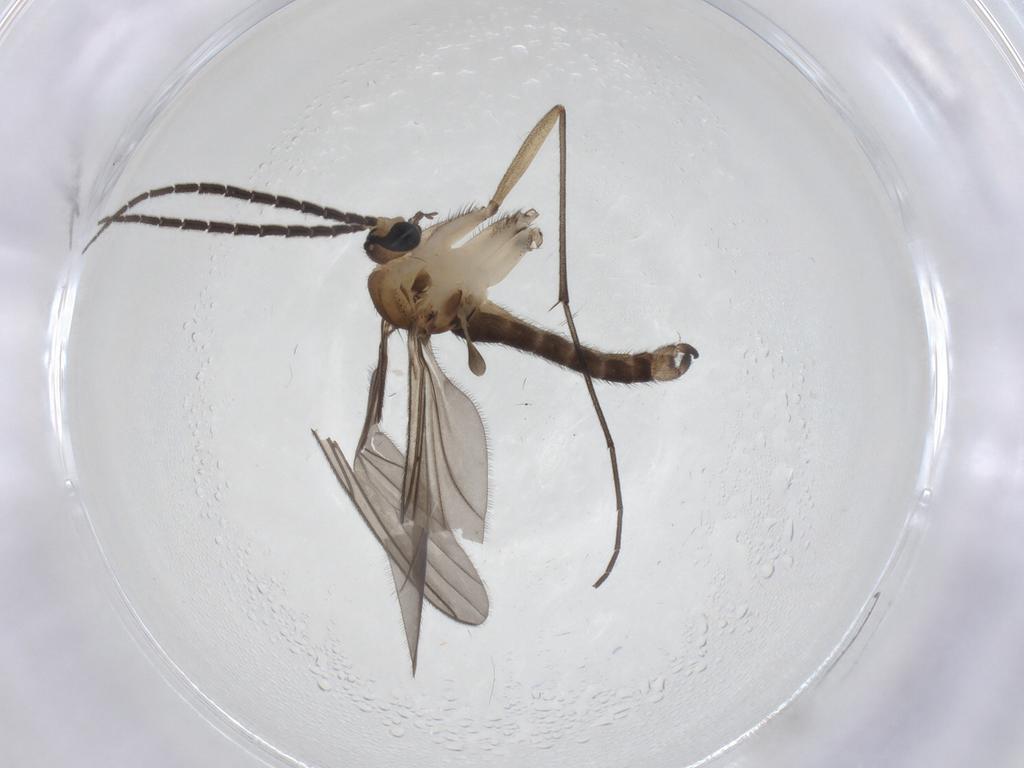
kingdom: Animalia
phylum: Arthropoda
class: Insecta
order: Diptera
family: Sciaridae
